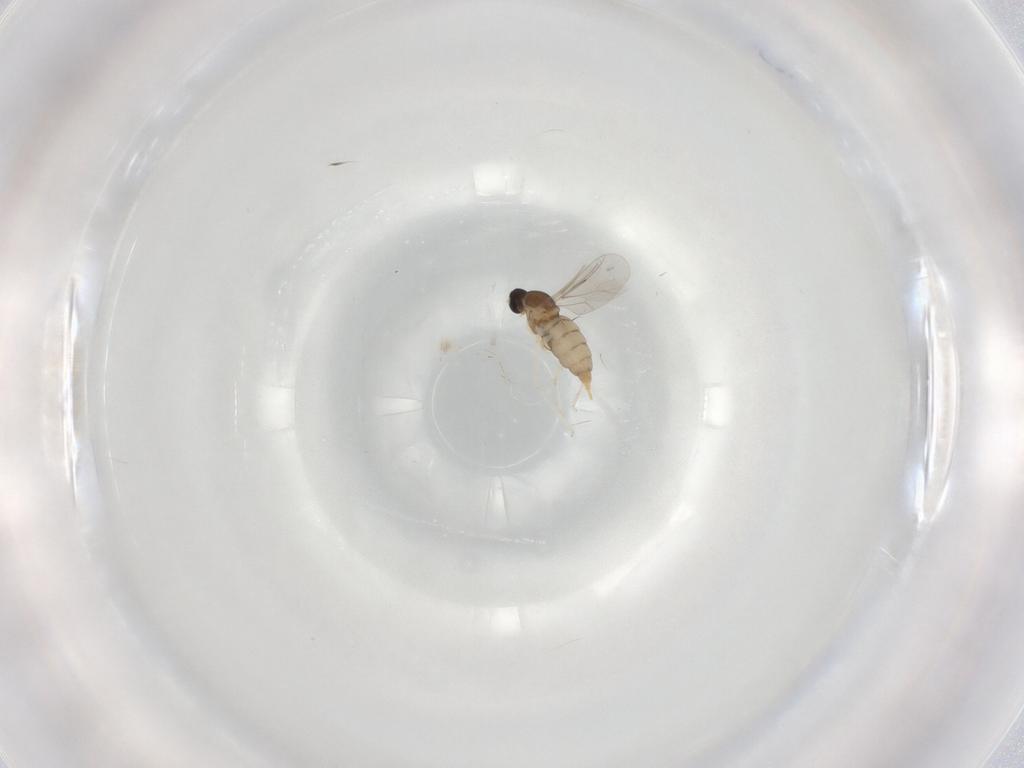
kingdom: Animalia
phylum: Arthropoda
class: Insecta
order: Diptera
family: Cecidomyiidae
